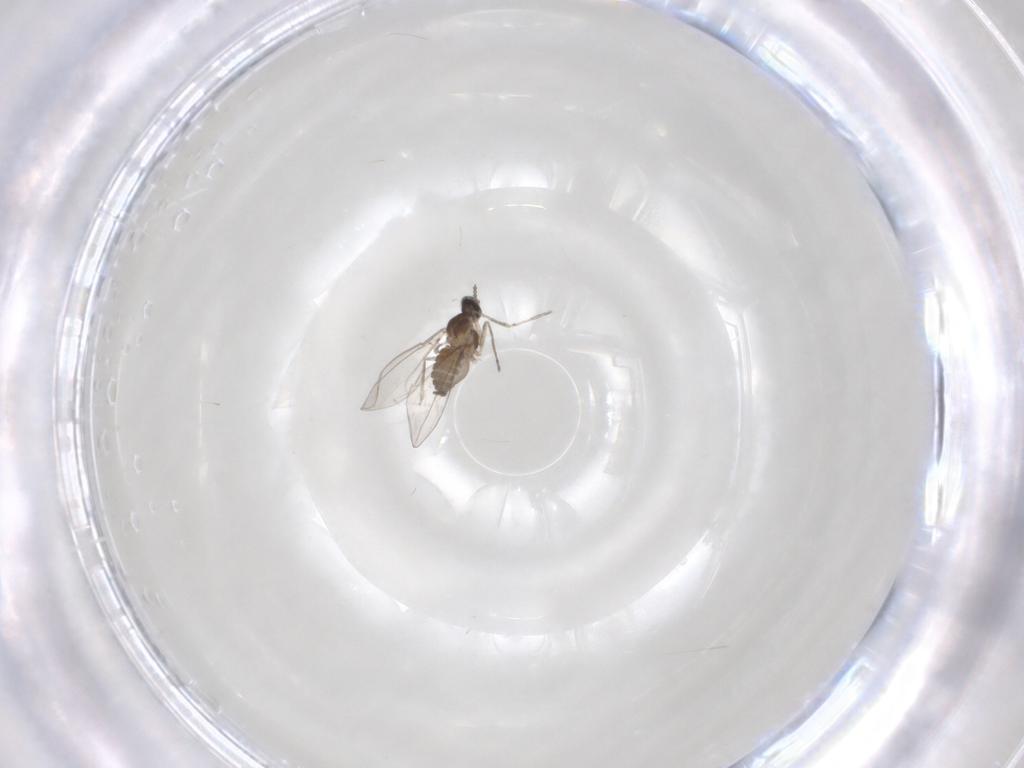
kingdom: Animalia
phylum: Arthropoda
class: Insecta
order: Diptera
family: Cecidomyiidae
